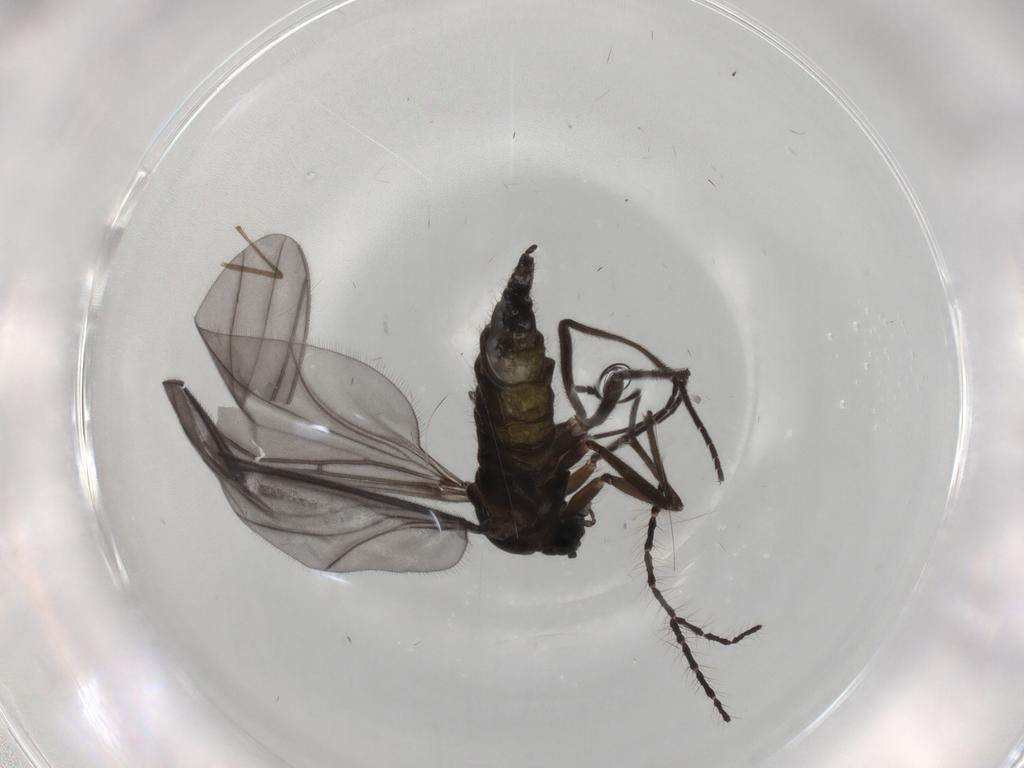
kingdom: Animalia
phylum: Arthropoda
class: Insecta
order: Diptera
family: Sciaridae
